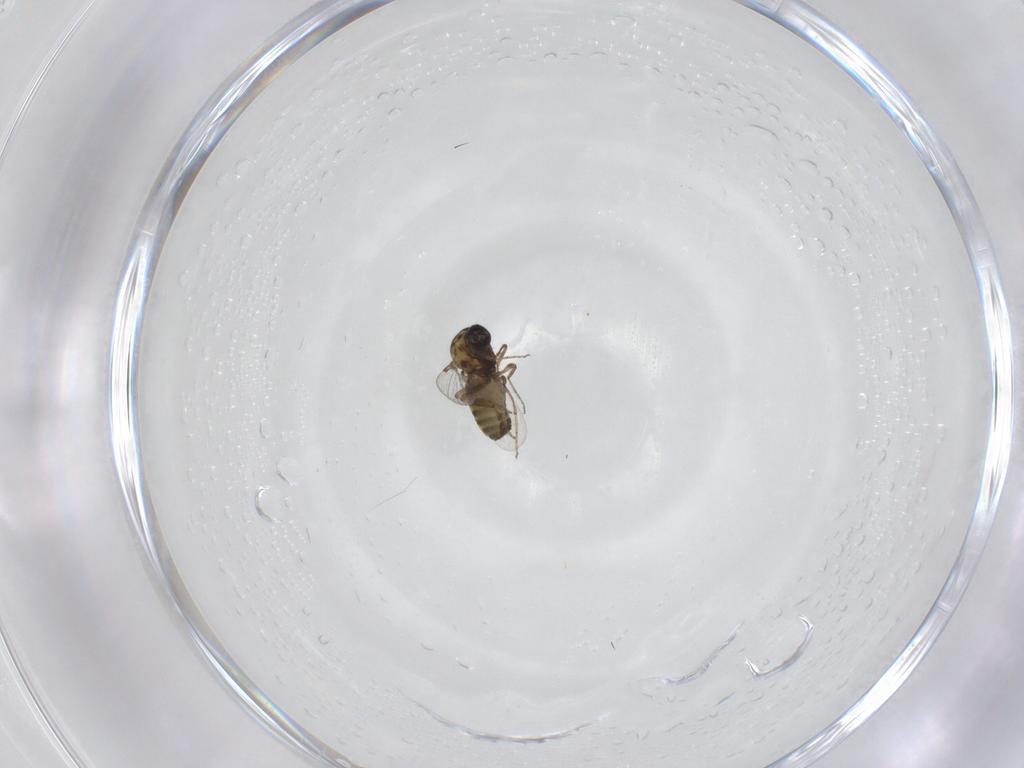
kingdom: Animalia
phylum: Arthropoda
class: Insecta
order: Diptera
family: Ceratopogonidae
